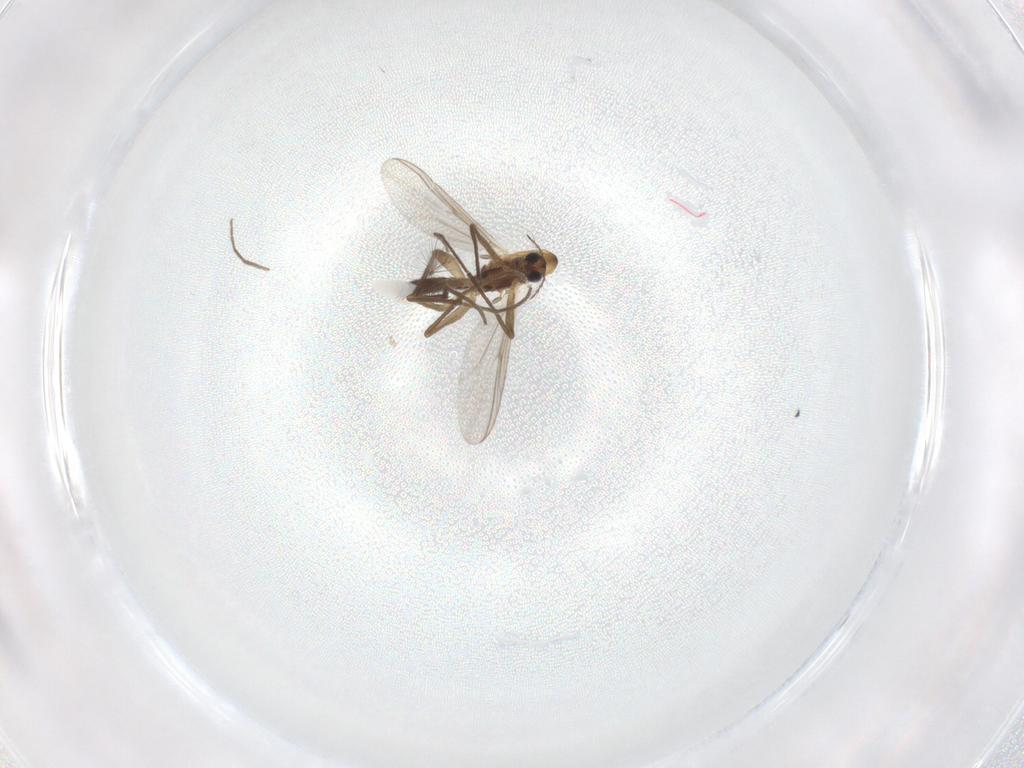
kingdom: Animalia
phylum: Arthropoda
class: Insecta
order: Diptera
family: Chironomidae
